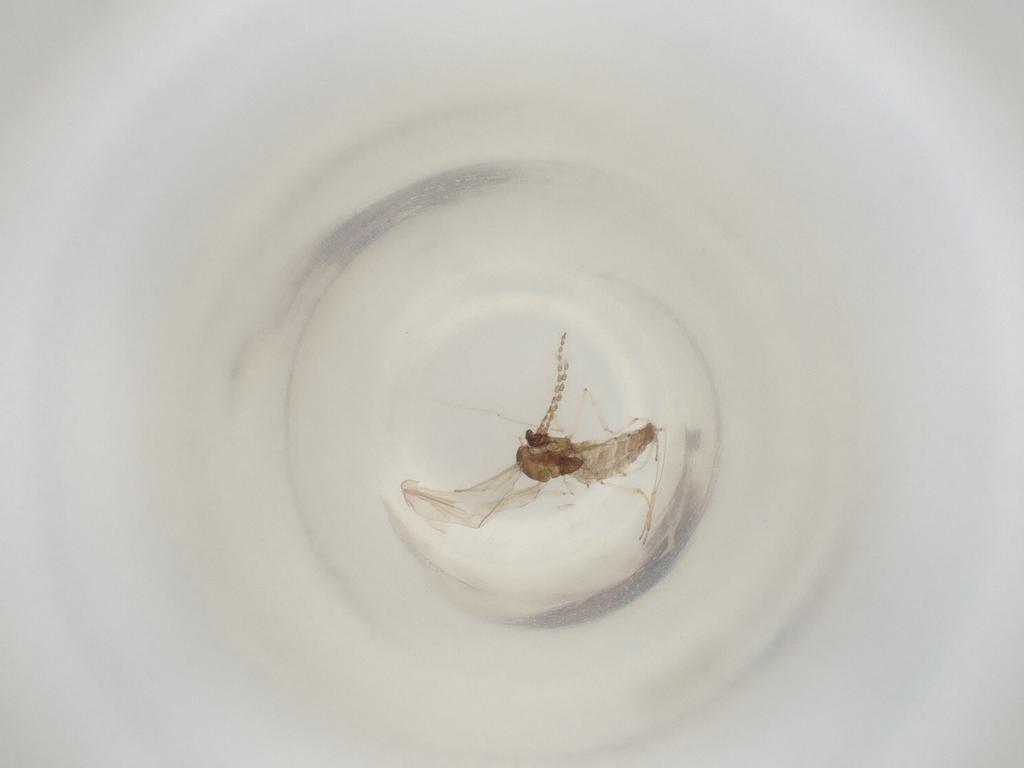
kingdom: Animalia
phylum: Arthropoda
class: Insecta
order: Diptera
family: Cecidomyiidae
